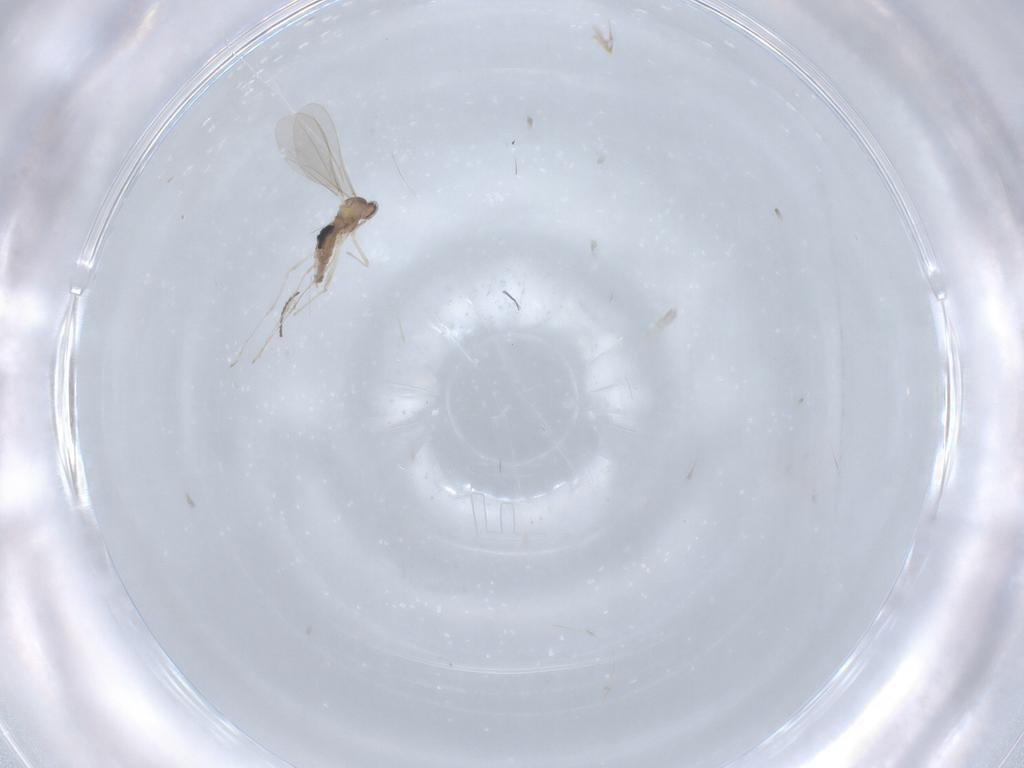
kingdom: Animalia
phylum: Arthropoda
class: Insecta
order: Diptera
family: Cecidomyiidae
